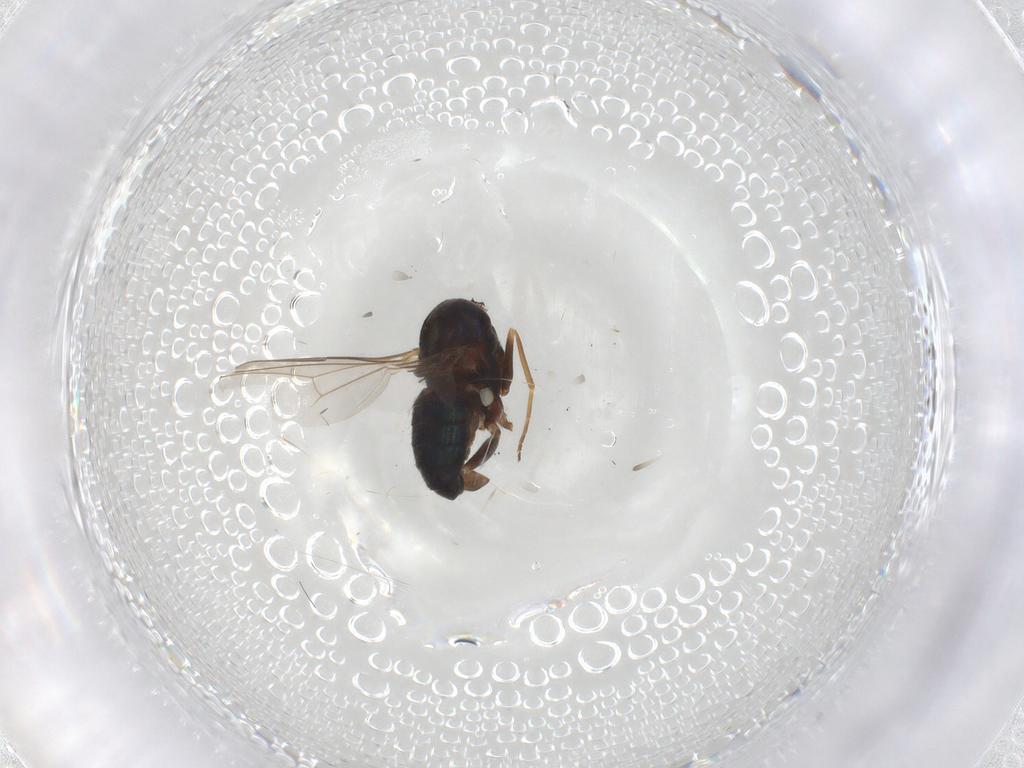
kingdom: Animalia
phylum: Arthropoda
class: Insecta
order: Diptera
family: Dolichopodidae
